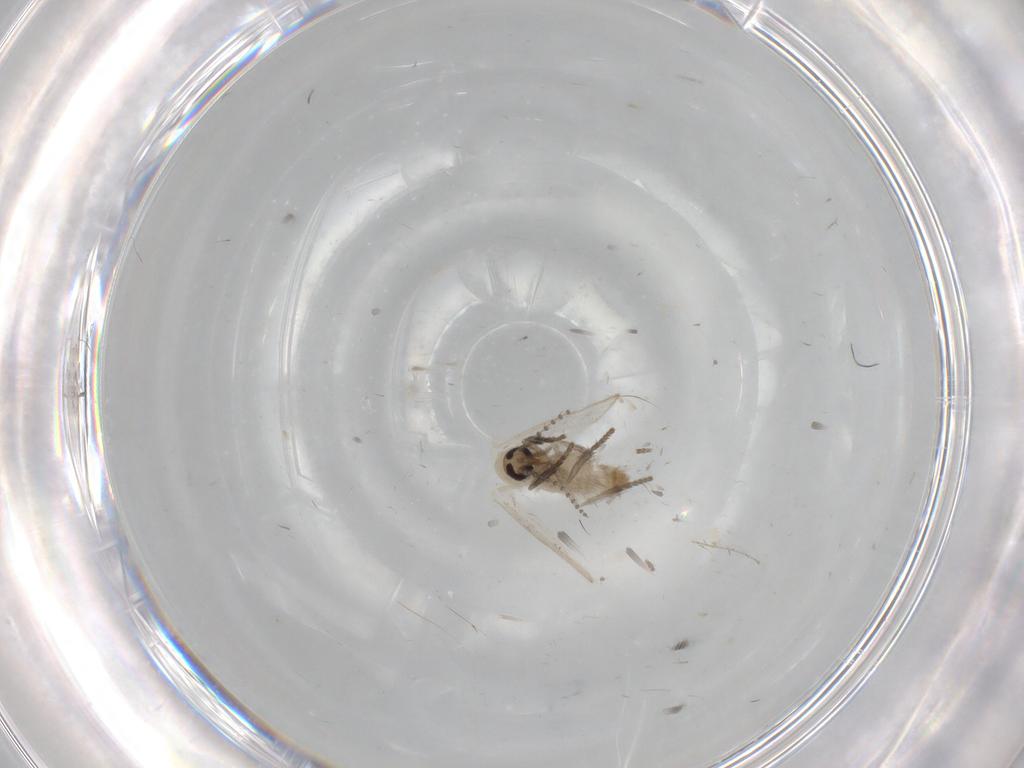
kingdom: Animalia
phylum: Arthropoda
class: Insecta
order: Diptera
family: Psychodidae
